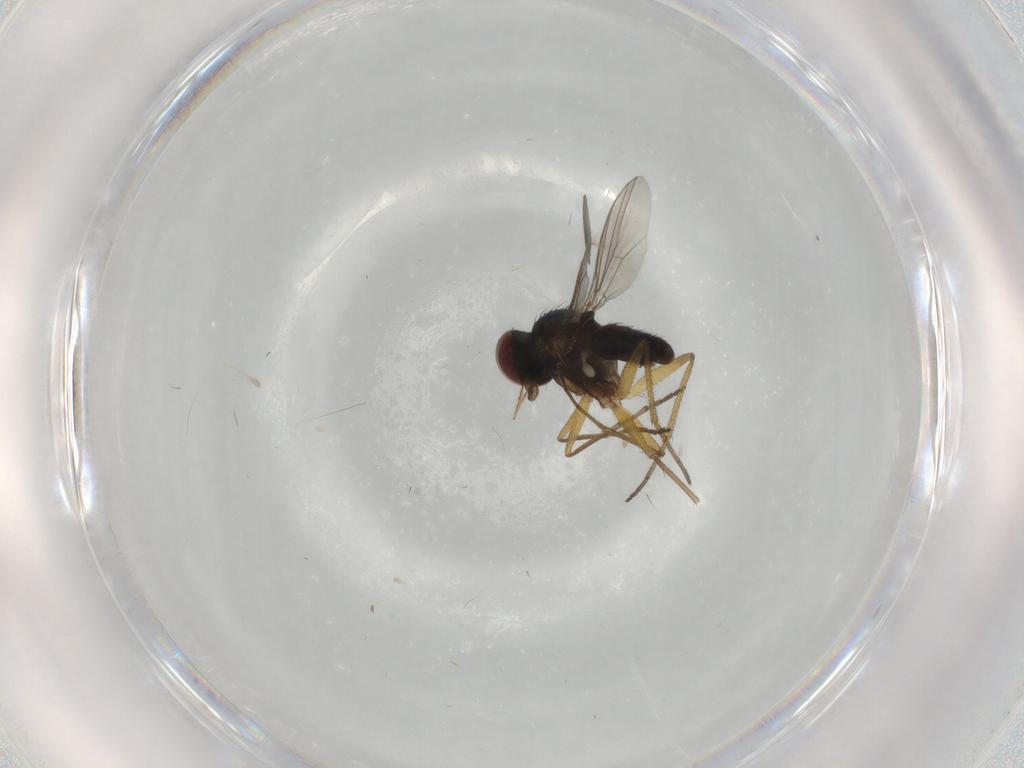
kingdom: Animalia
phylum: Arthropoda
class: Insecta
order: Diptera
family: Dolichopodidae
